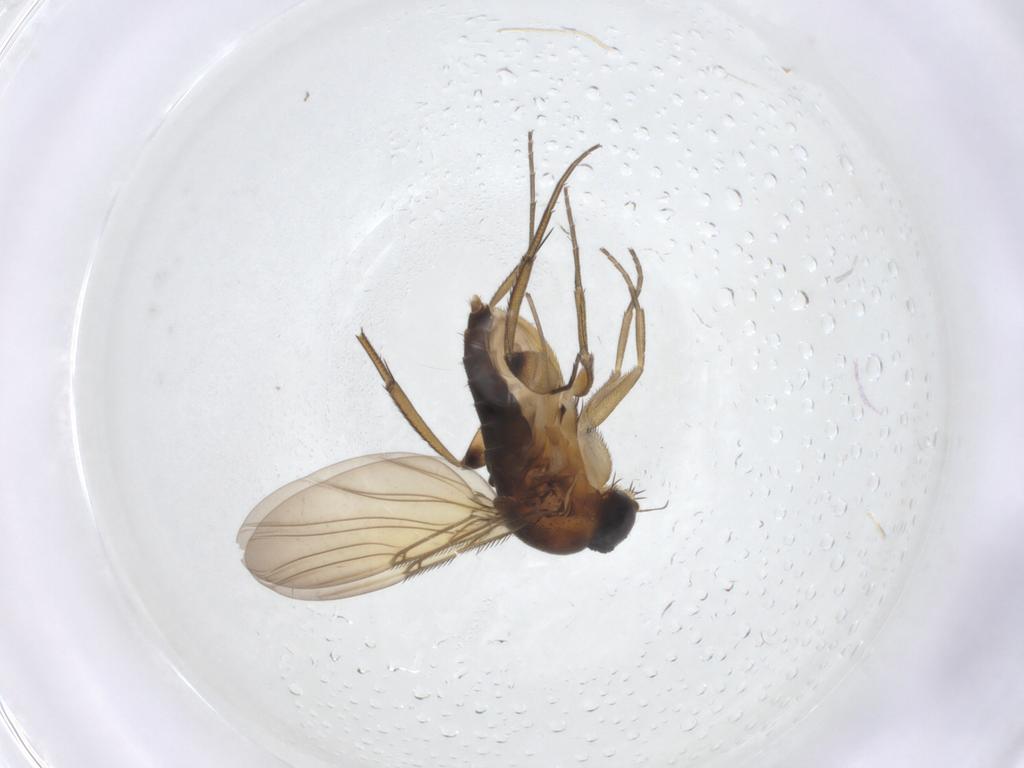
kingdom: Animalia
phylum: Arthropoda
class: Insecta
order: Diptera
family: Phoridae
